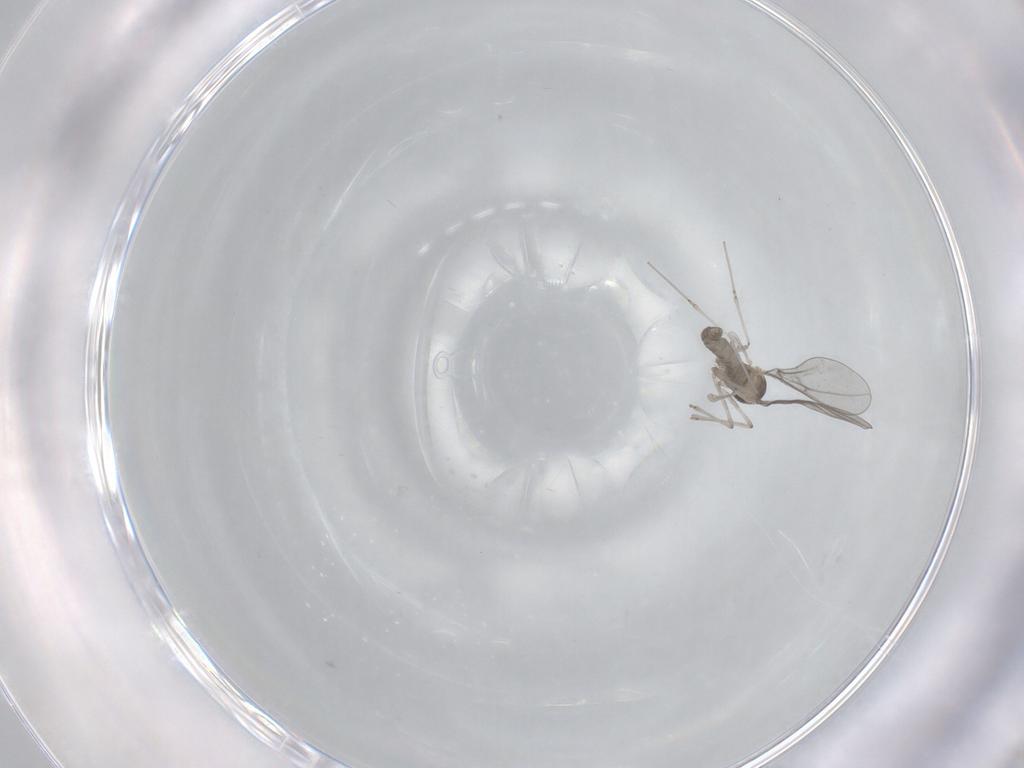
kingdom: Animalia
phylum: Arthropoda
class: Insecta
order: Diptera
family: Cecidomyiidae
